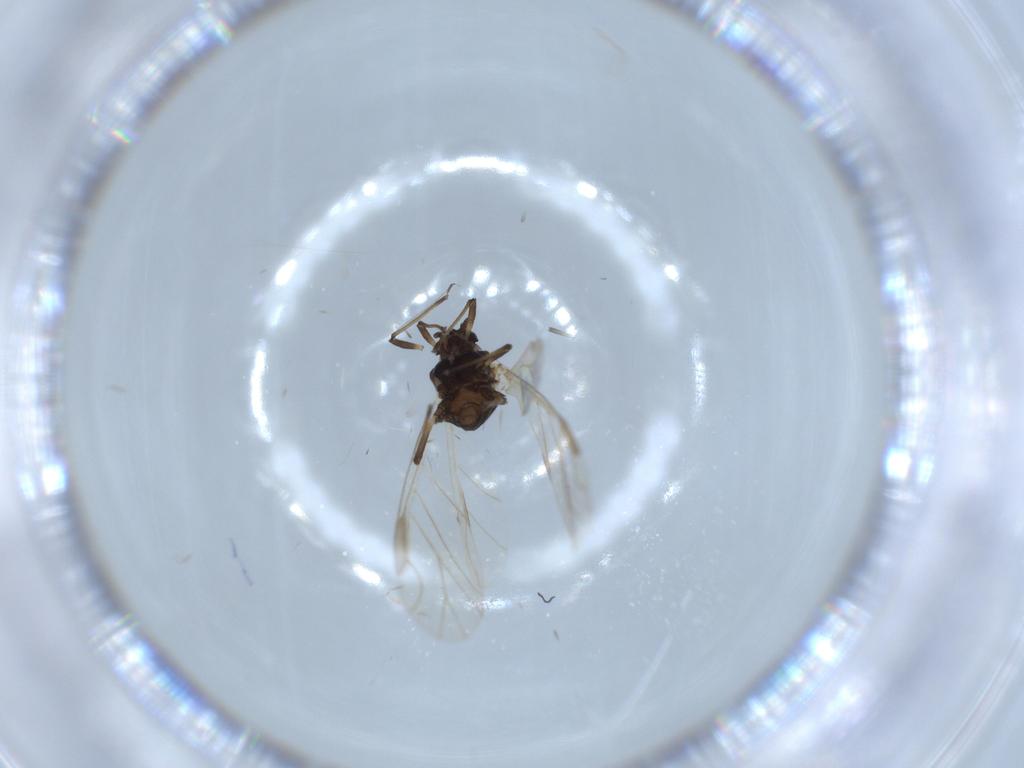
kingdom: Animalia
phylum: Arthropoda
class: Insecta
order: Hemiptera
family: Aphididae
